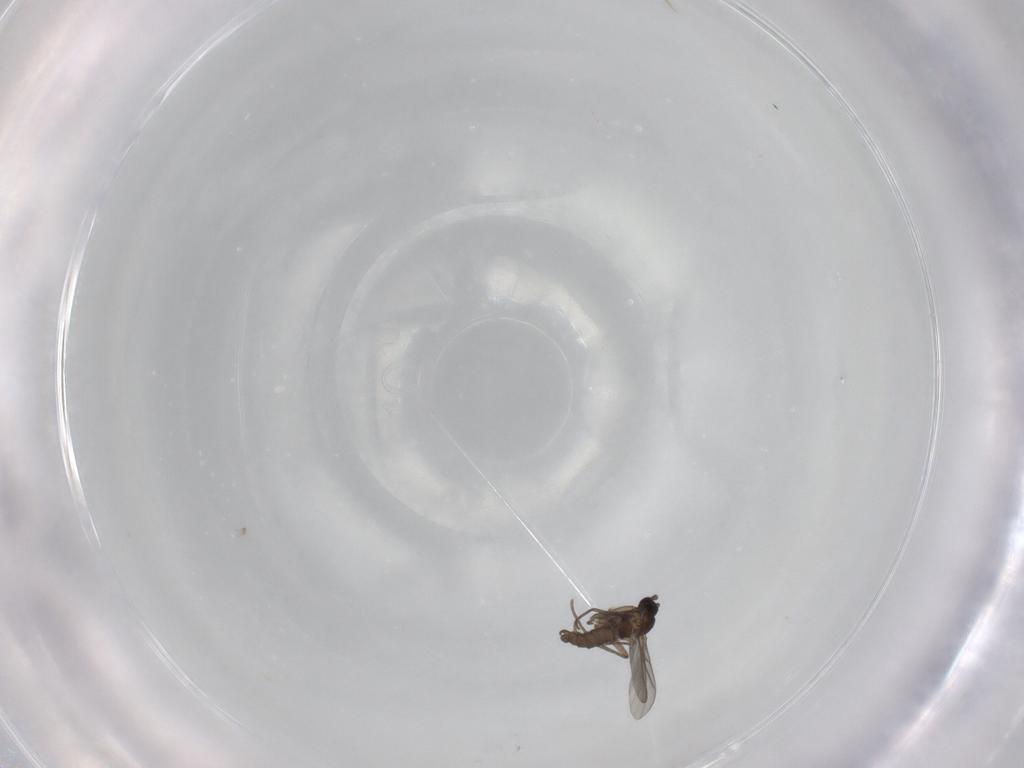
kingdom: Animalia
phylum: Arthropoda
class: Insecta
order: Diptera
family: Sciaridae
